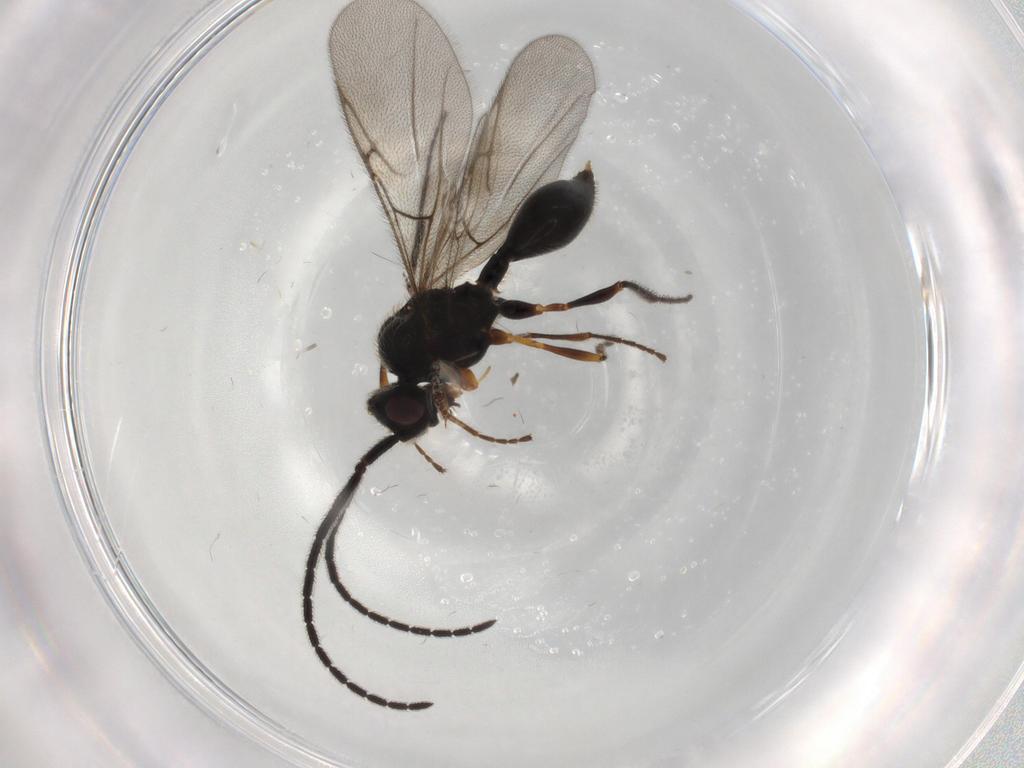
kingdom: Animalia
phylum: Arthropoda
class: Insecta
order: Hymenoptera
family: Diapriidae
